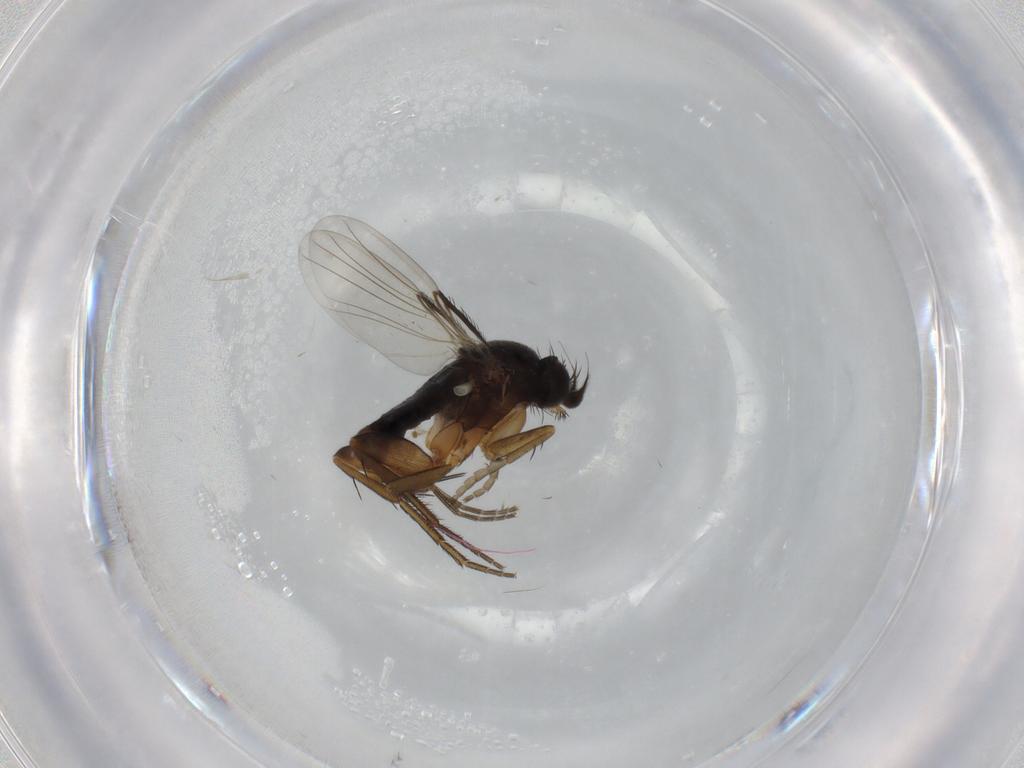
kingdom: Animalia
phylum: Arthropoda
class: Insecta
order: Diptera
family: Phoridae
